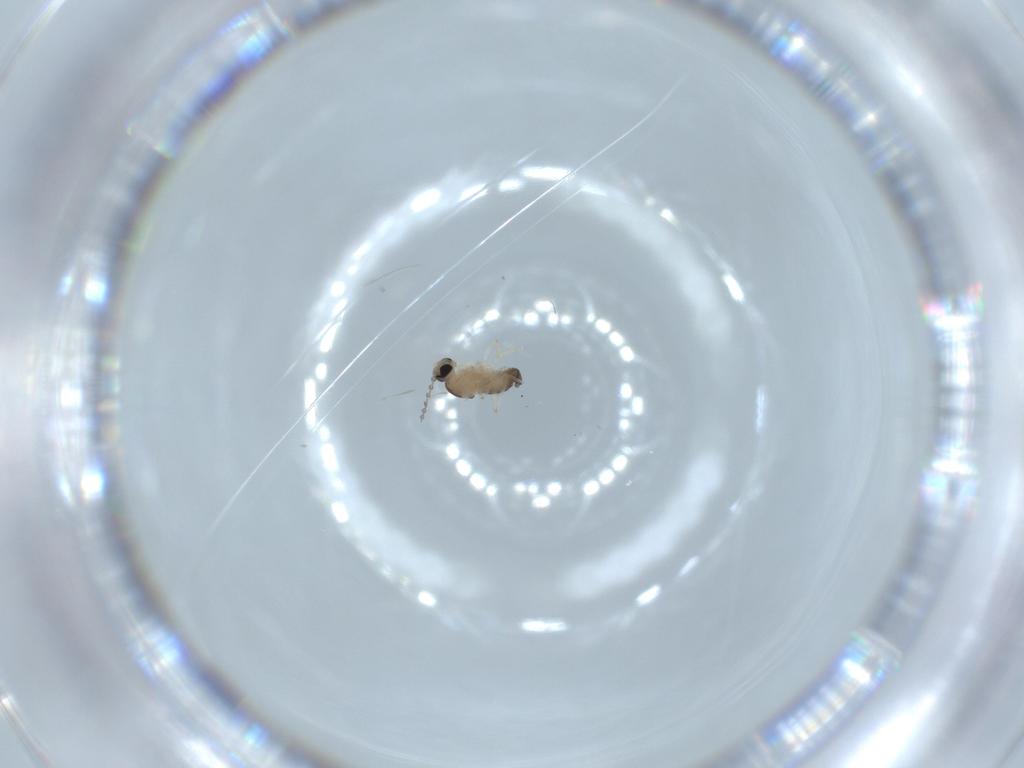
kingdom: Animalia
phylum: Arthropoda
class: Insecta
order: Diptera
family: Cecidomyiidae
